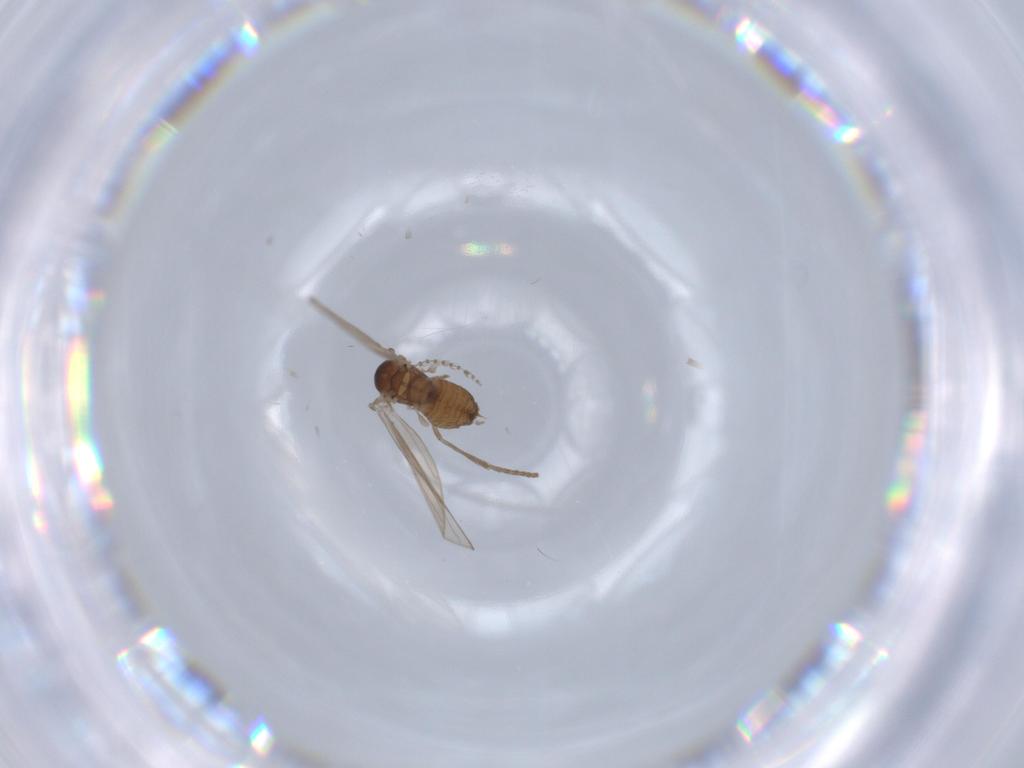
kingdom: Animalia
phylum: Arthropoda
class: Insecta
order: Diptera
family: Psychodidae
